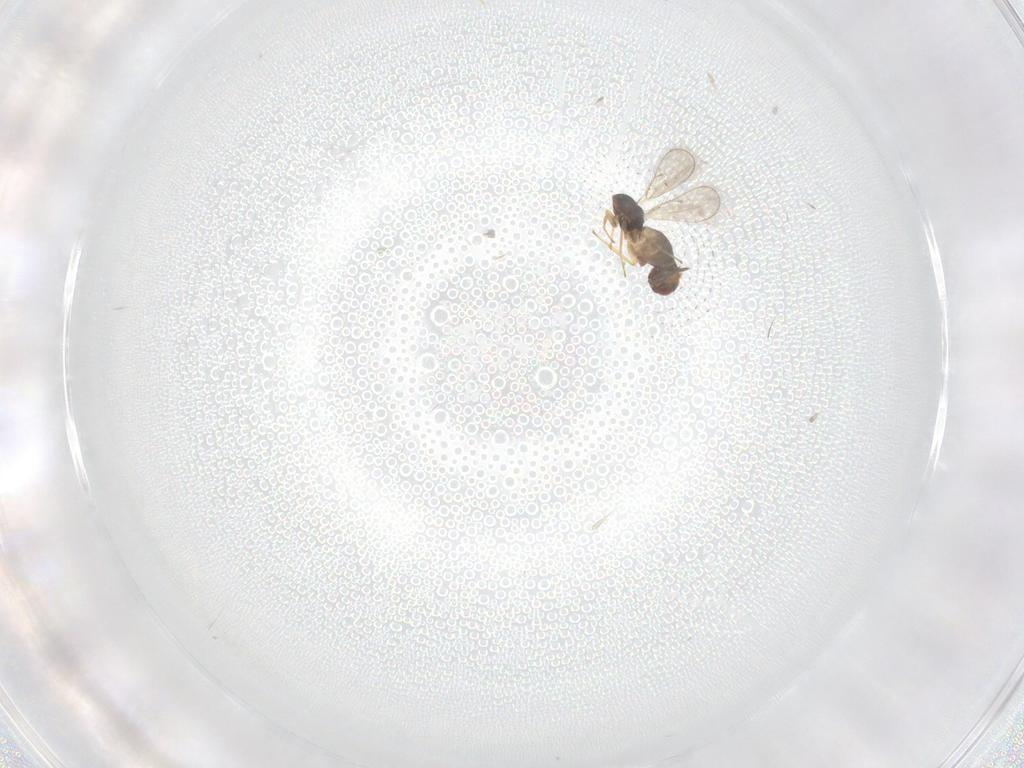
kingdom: Animalia
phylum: Arthropoda
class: Insecta
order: Hymenoptera
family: Eulophidae
